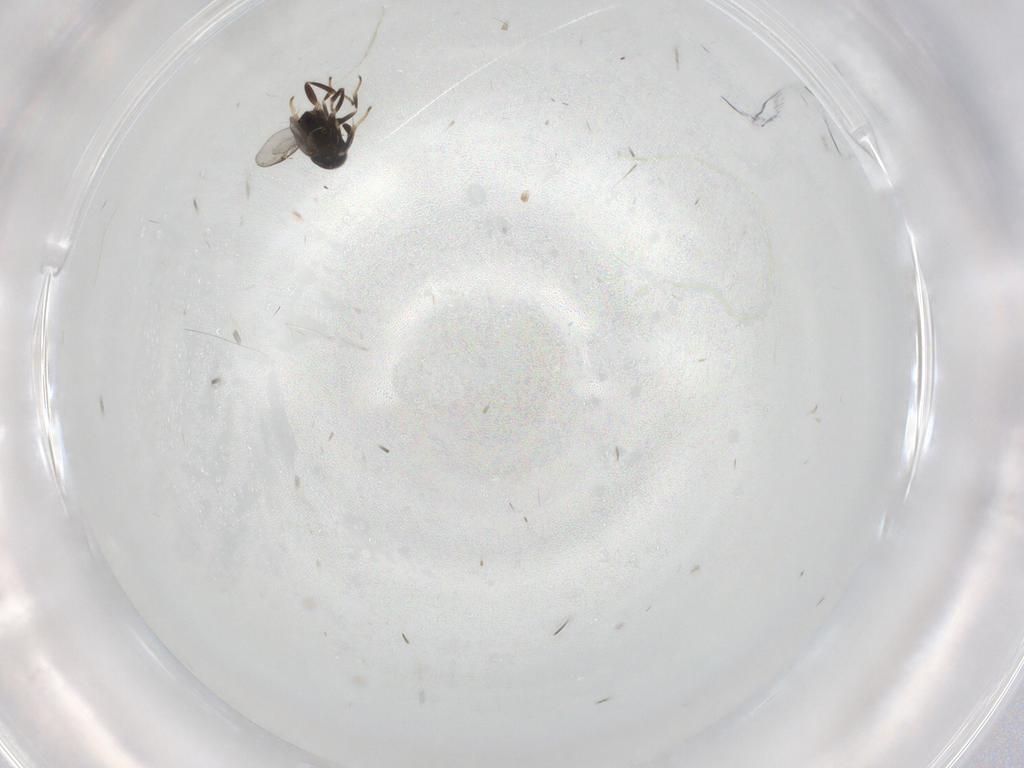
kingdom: Animalia
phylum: Arthropoda
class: Insecta
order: Hymenoptera
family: Encyrtidae
